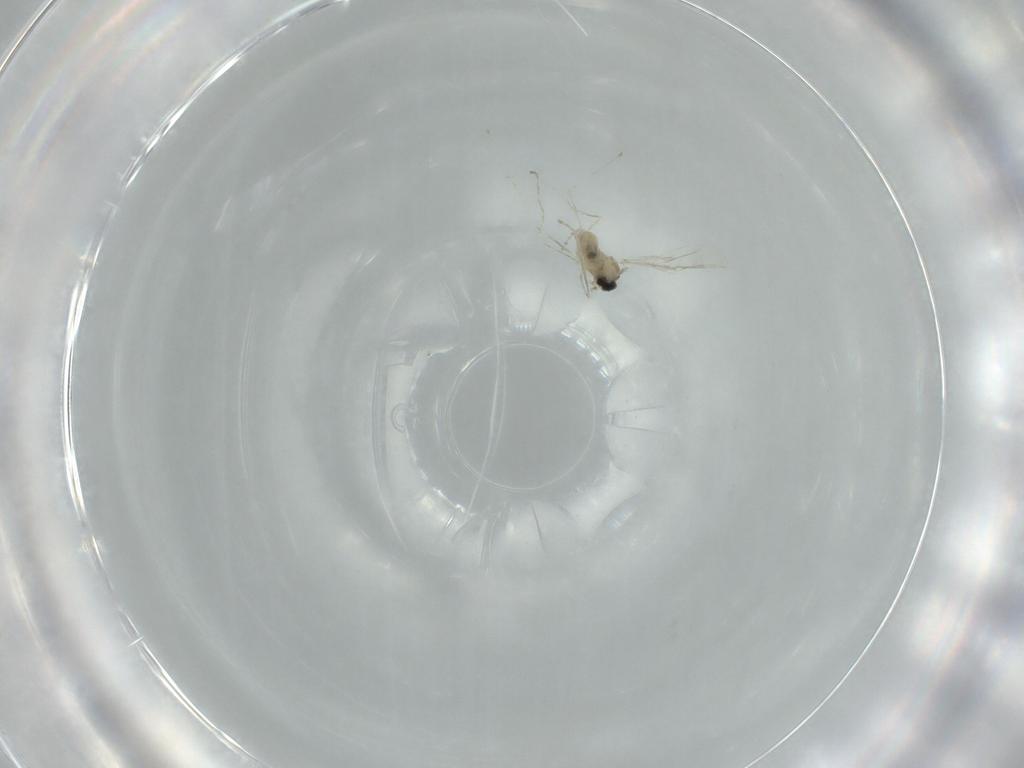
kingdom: Animalia
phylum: Arthropoda
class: Insecta
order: Diptera
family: Cecidomyiidae
